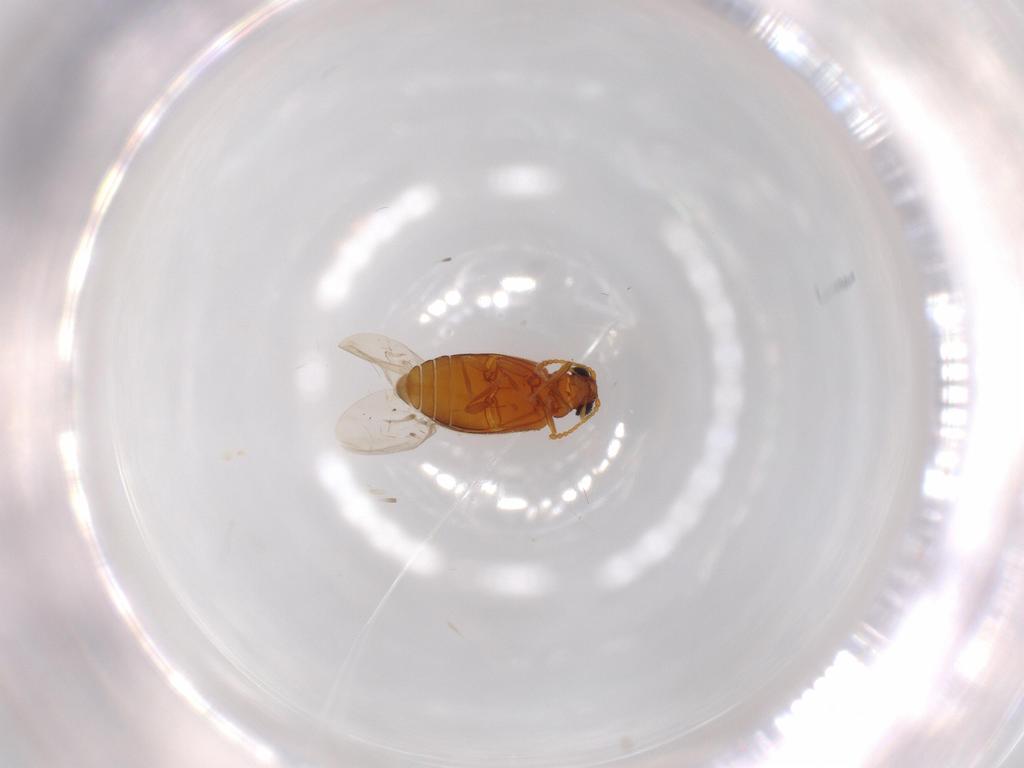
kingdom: Animalia
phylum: Arthropoda
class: Insecta
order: Coleoptera
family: Aderidae
